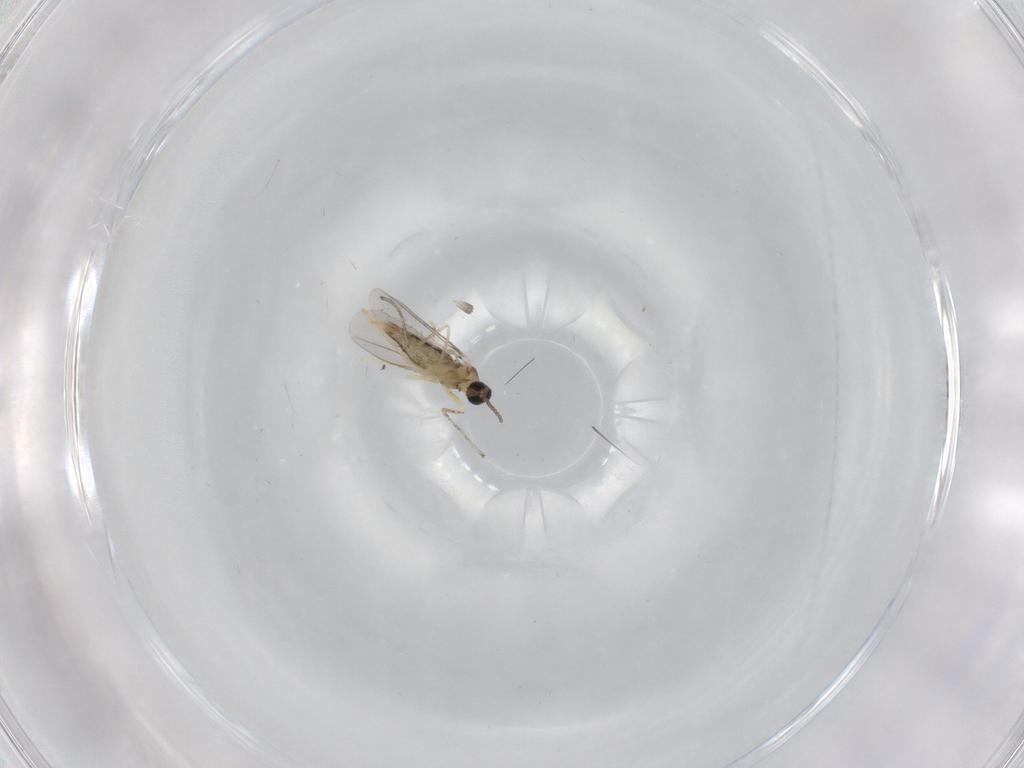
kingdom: Animalia
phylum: Arthropoda
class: Insecta
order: Diptera
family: Cecidomyiidae
